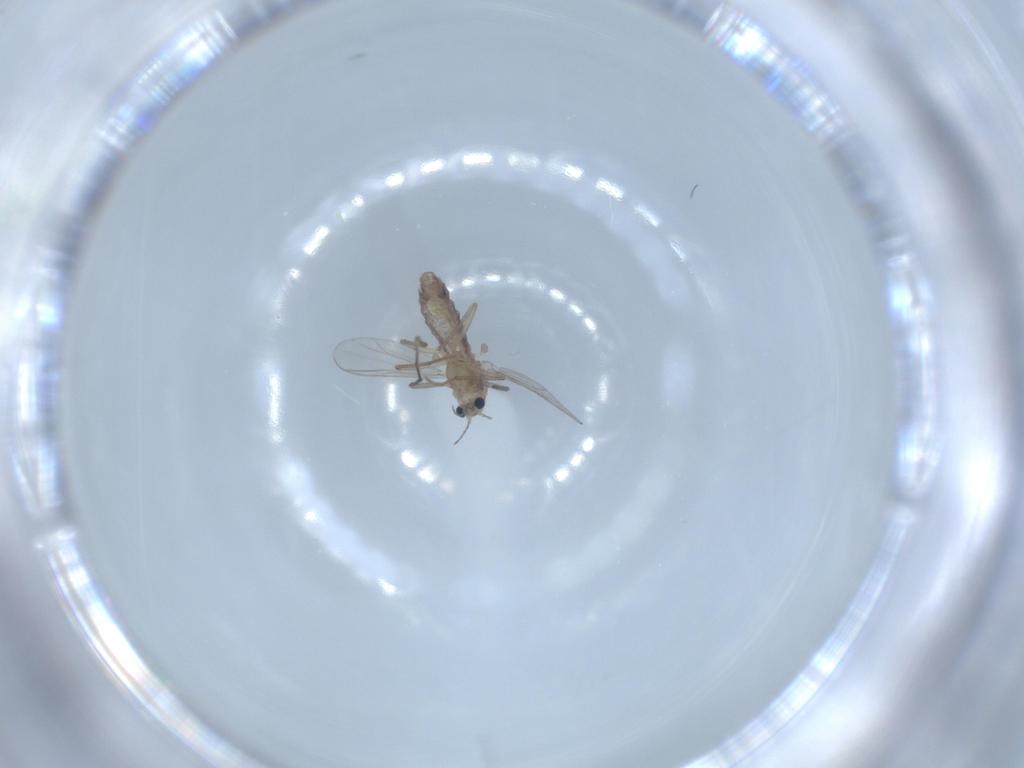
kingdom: Animalia
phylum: Arthropoda
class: Insecta
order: Diptera
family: Chironomidae
